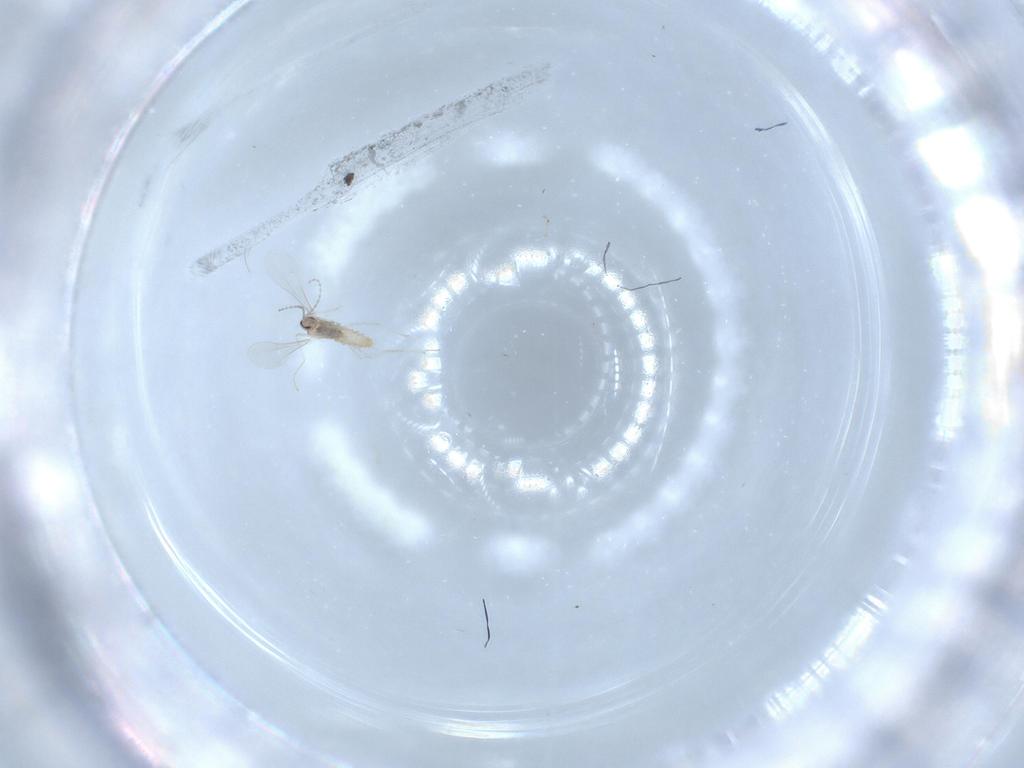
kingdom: Animalia
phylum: Arthropoda
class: Insecta
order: Diptera
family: Cecidomyiidae
